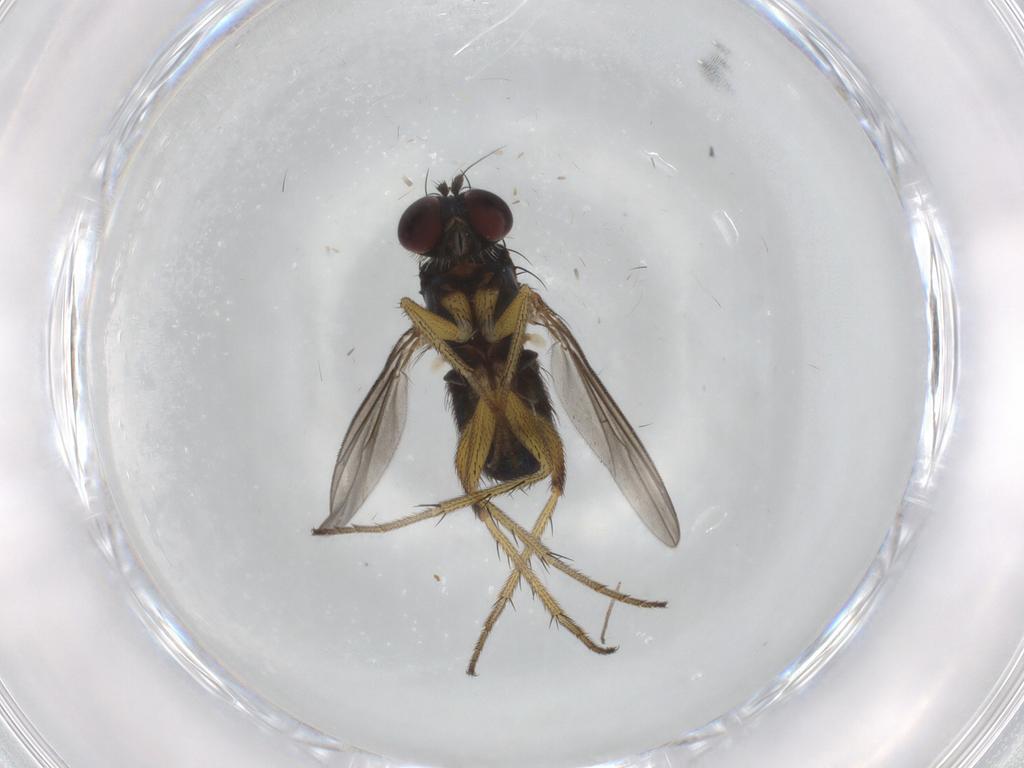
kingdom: Animalia
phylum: Arthropoda
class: Insecta
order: Diptera
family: Dolichopodidae
